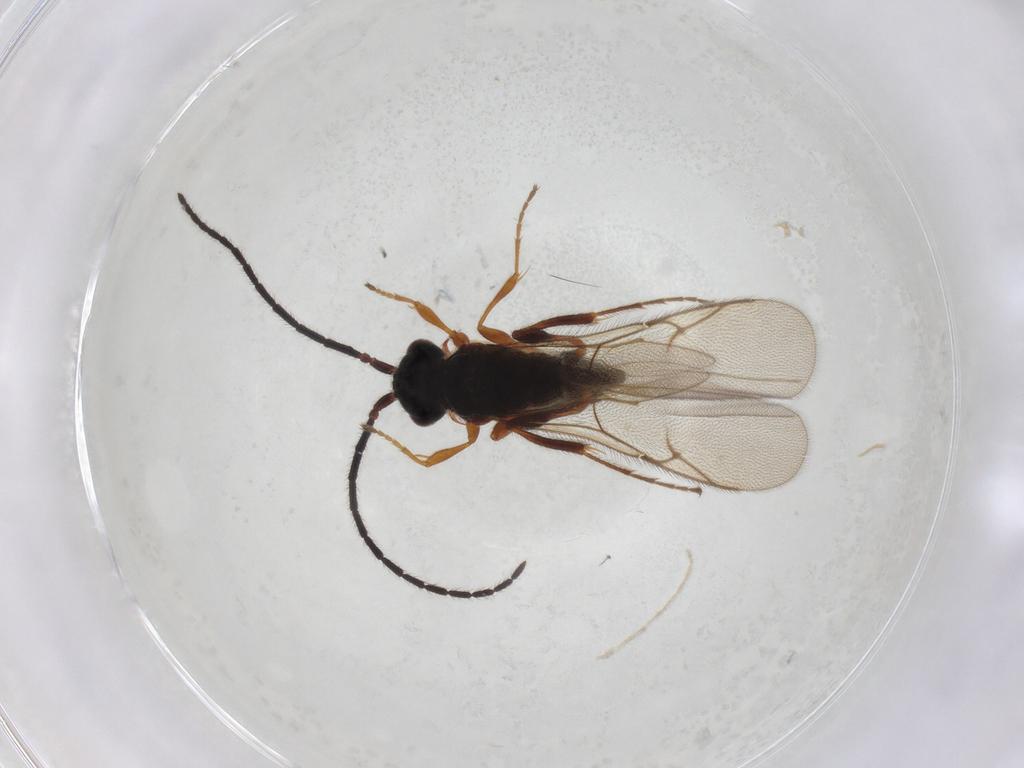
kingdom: Animalia
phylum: Arthropoda
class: Insecta
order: Hymenoptera
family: Diapriidae
